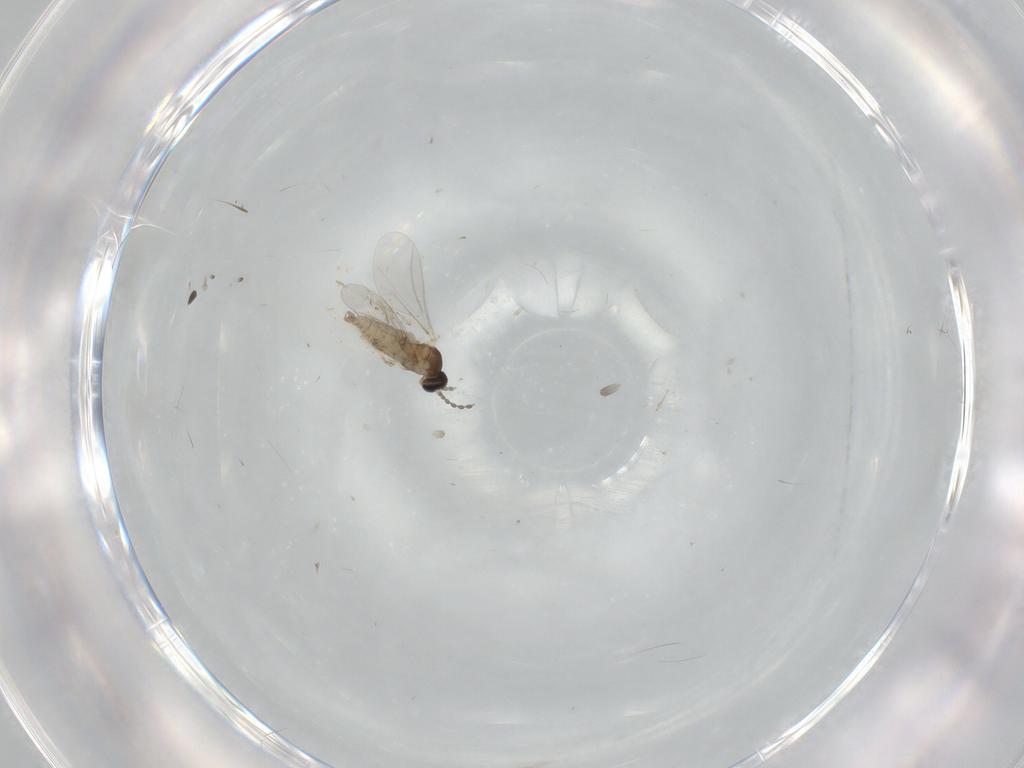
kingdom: Animalia
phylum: Arthropoda
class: Insecta
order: Diptera
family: Cecidomyiidae
